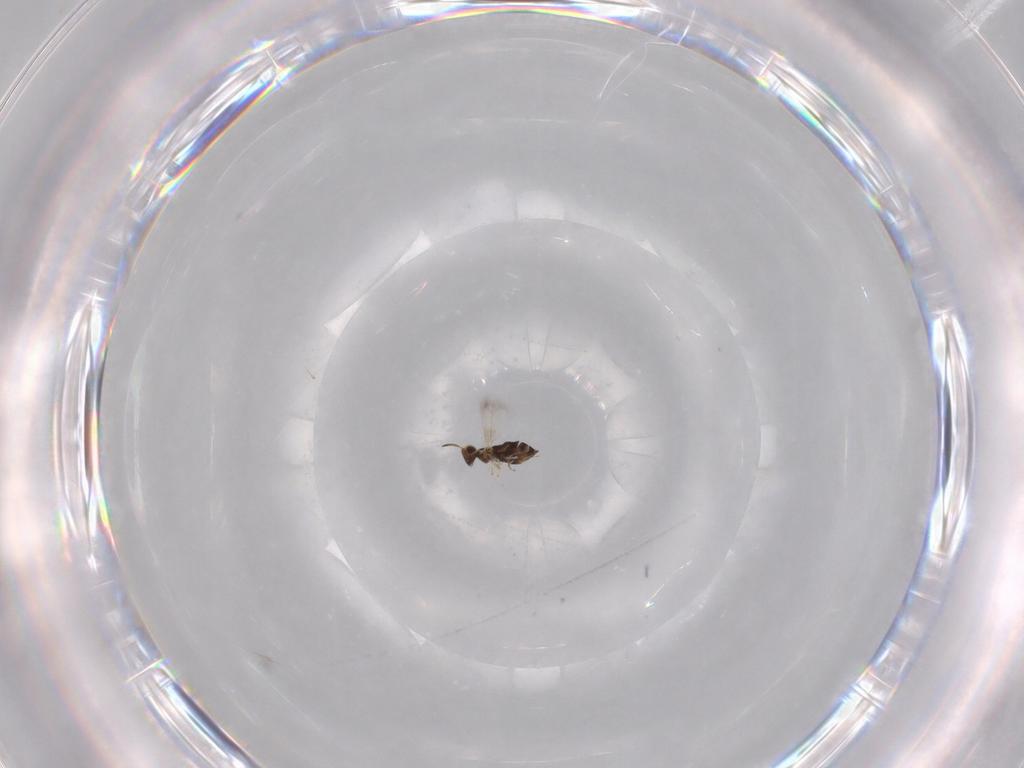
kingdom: Animalia
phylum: Arthropoda
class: Insecta
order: Hymenoptera
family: Signiphoridae
